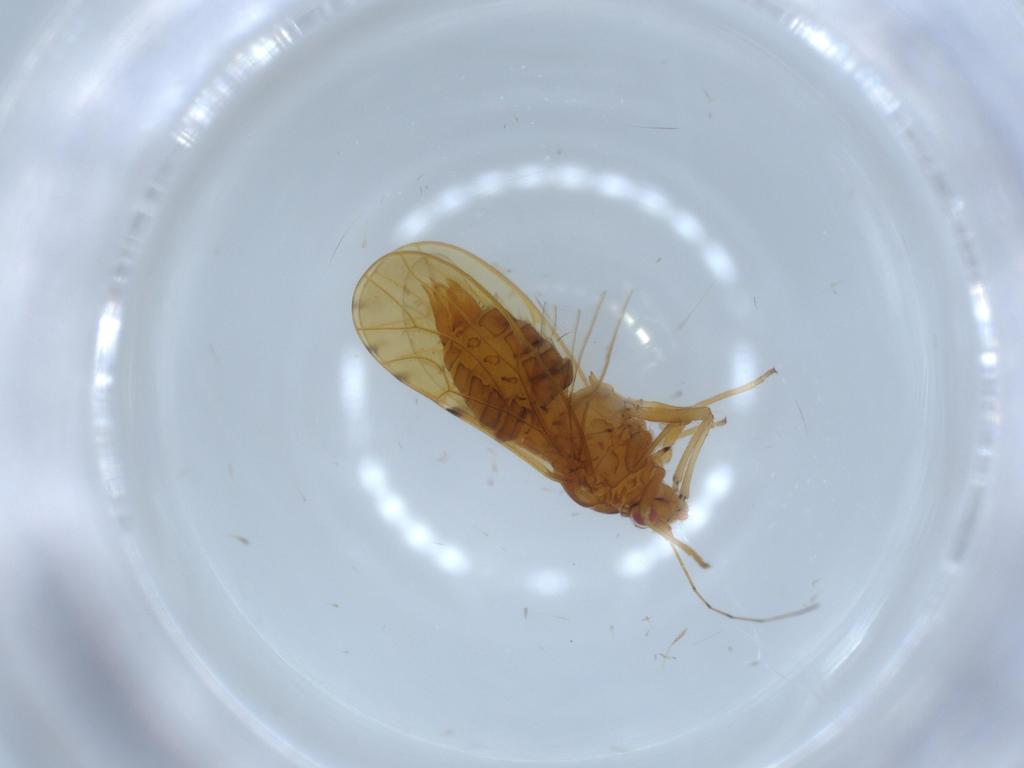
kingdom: Animalia
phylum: Arthropoda
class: Insecta
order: Hemiptera
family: Psylloidea_incertae_sedis
